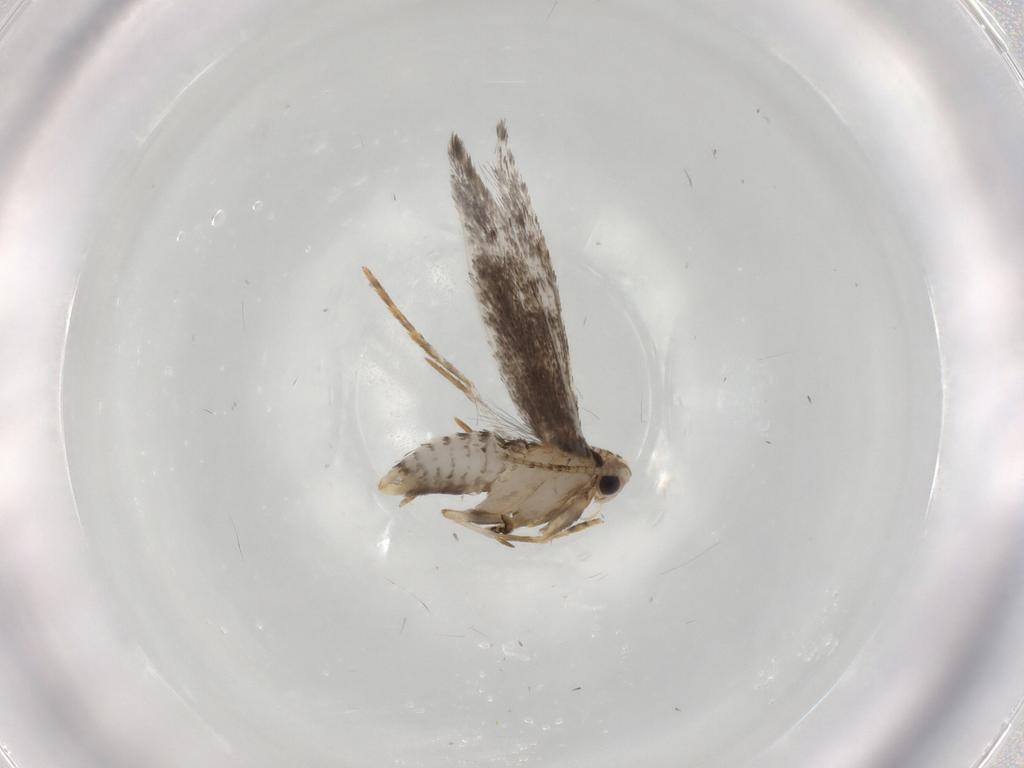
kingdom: Animalia
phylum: Arthropoda
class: Insecta
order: Lepidoptera
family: Tineidae
